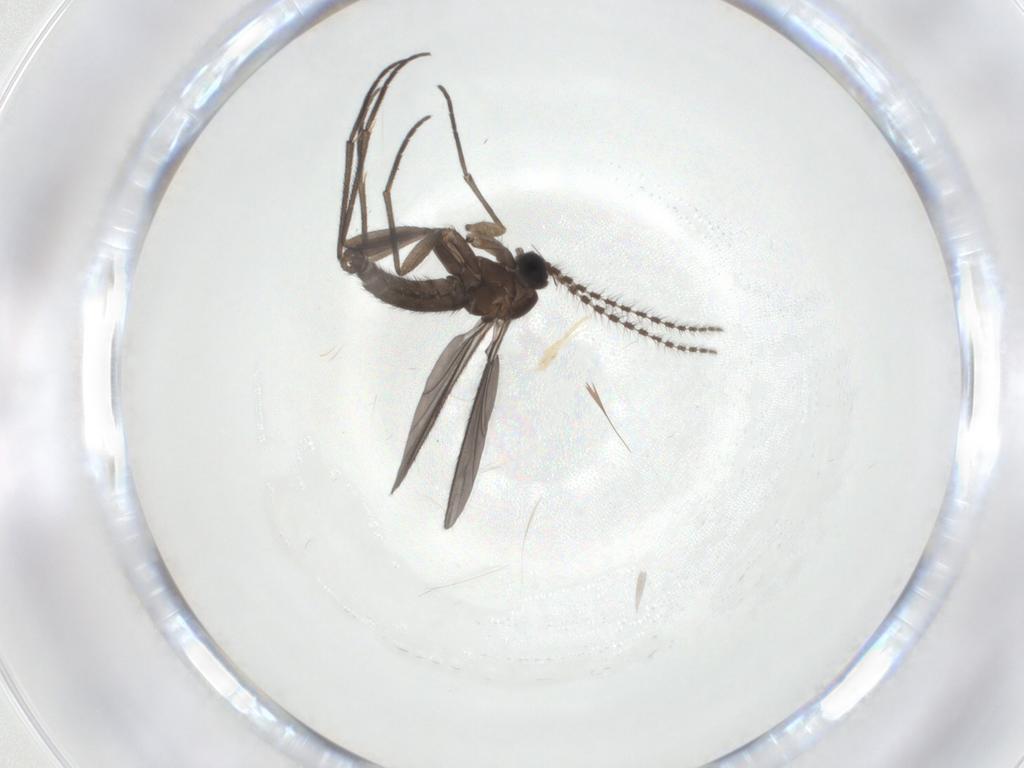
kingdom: Animalia
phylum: Arthropoda
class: Insecta
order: Diptera
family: Sciaridae
